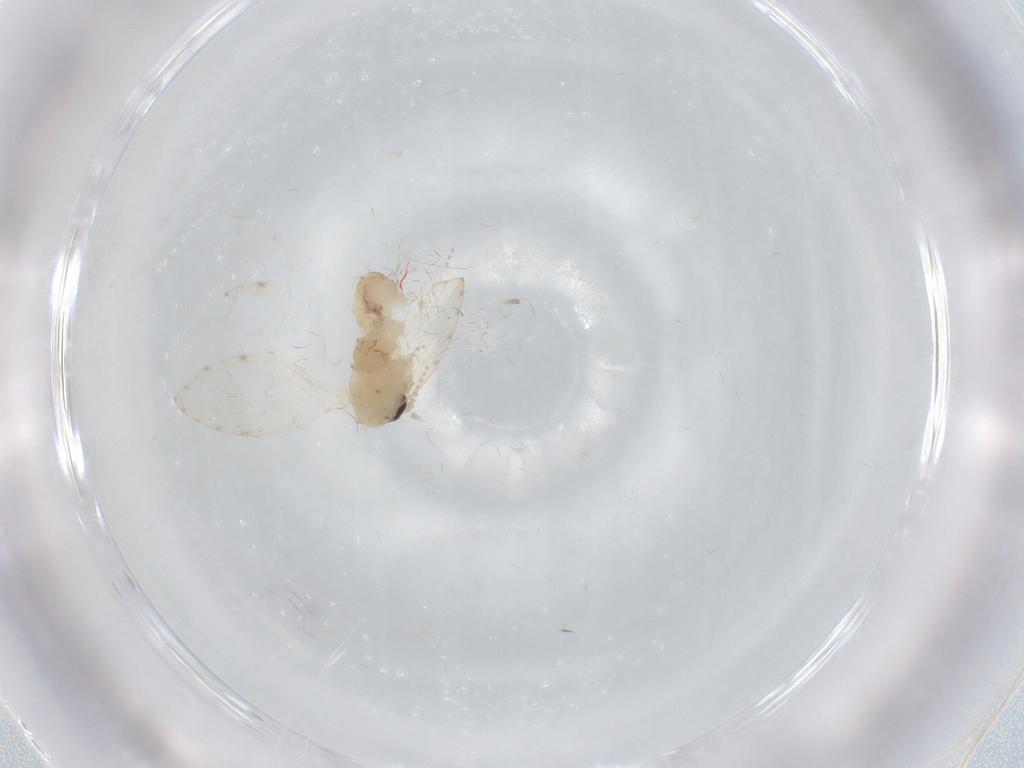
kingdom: Animalia
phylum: Arthropoda
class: Insecta
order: Diptera
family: Psychodidae
